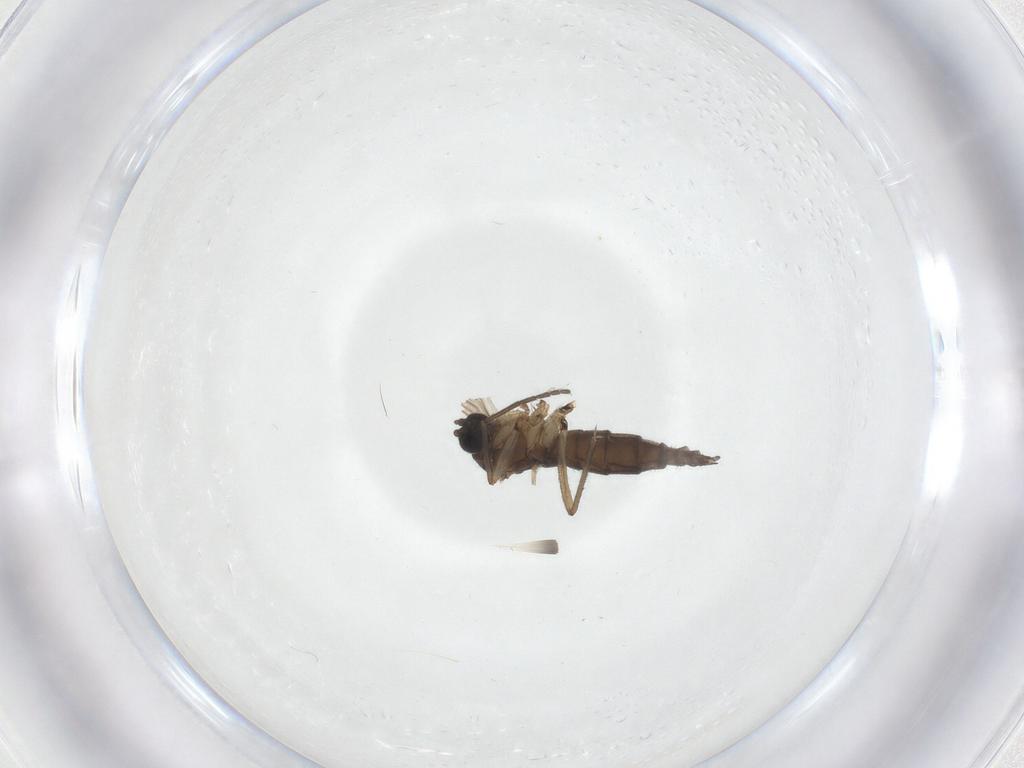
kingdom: Animalia
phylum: Arthropoda
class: Insecta
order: Diptera
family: Sciaridae
